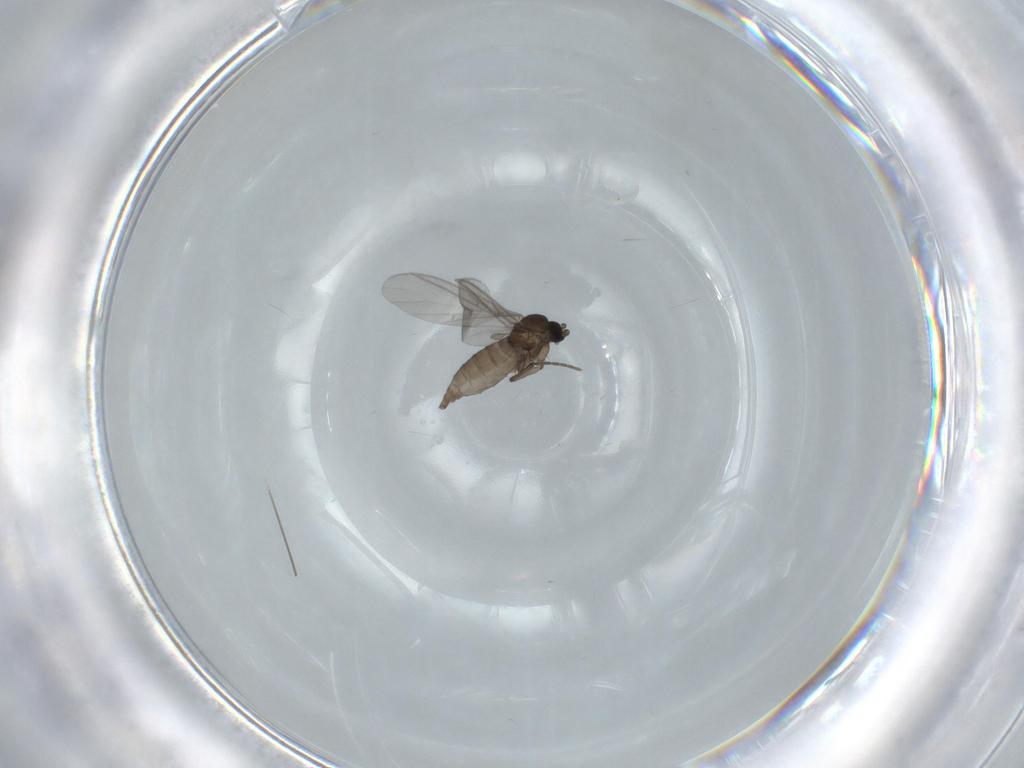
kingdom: Animalia
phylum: Arthropoda
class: Insecta
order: Diptera
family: Sciaridae
